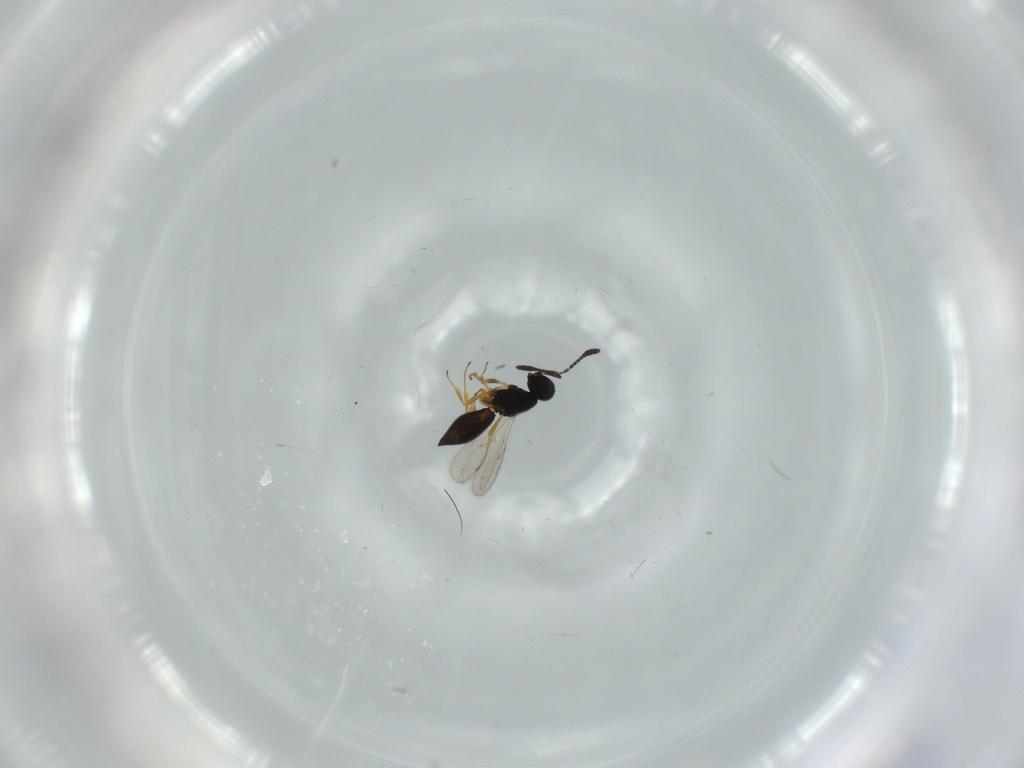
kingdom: Animalia
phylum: Arthropoda
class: Insecta
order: Hymenoptera
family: Scelionidae
